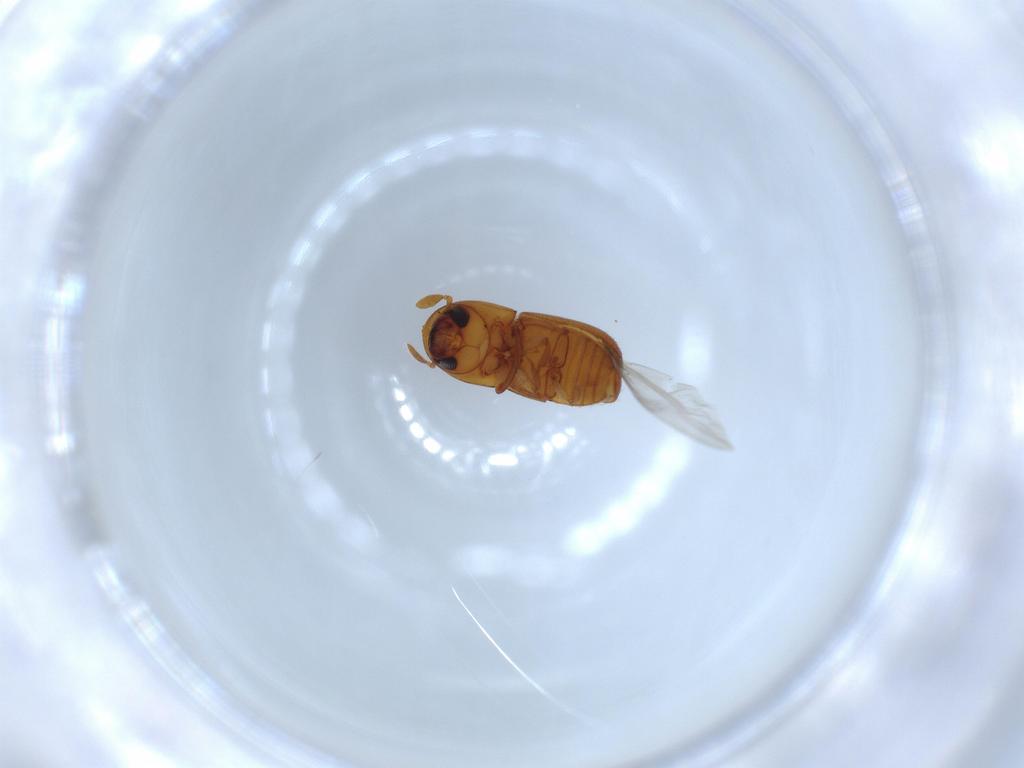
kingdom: Animalia
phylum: Arthropoda
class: Insecta
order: Coleoptera
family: Curculionidae
